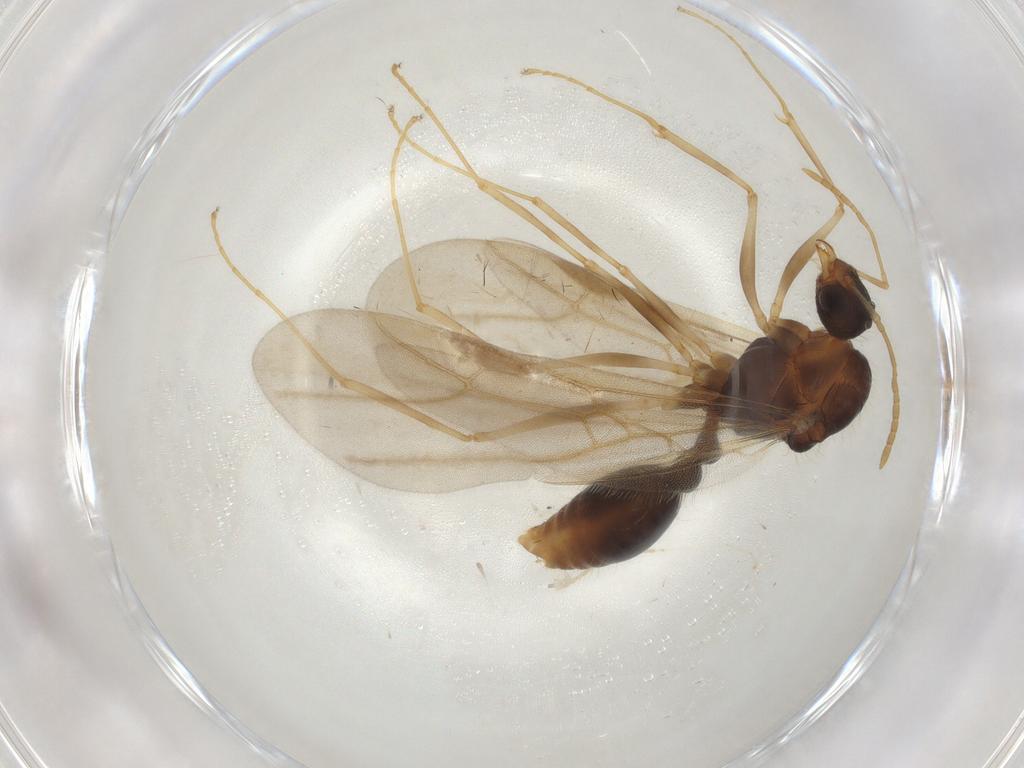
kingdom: Animalia
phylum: Arthropoda
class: Insecta
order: Hymenoptera
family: Formicidae
